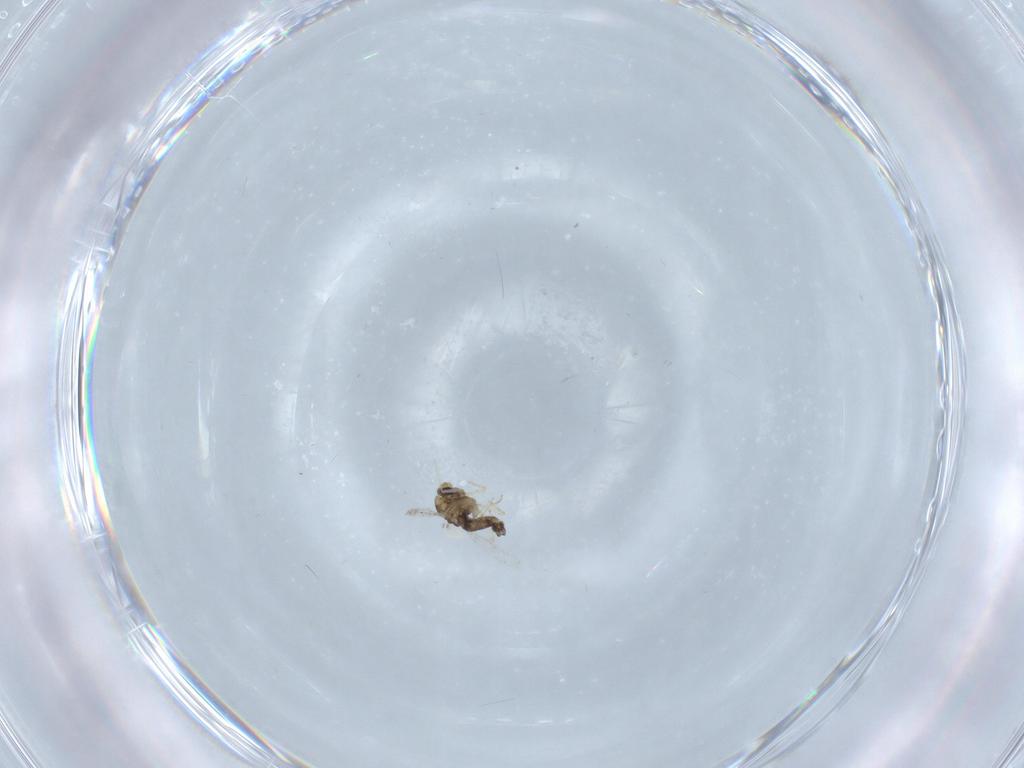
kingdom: Animalia
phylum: Arthropoda
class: Insecta
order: Diptera
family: Chironomidae
